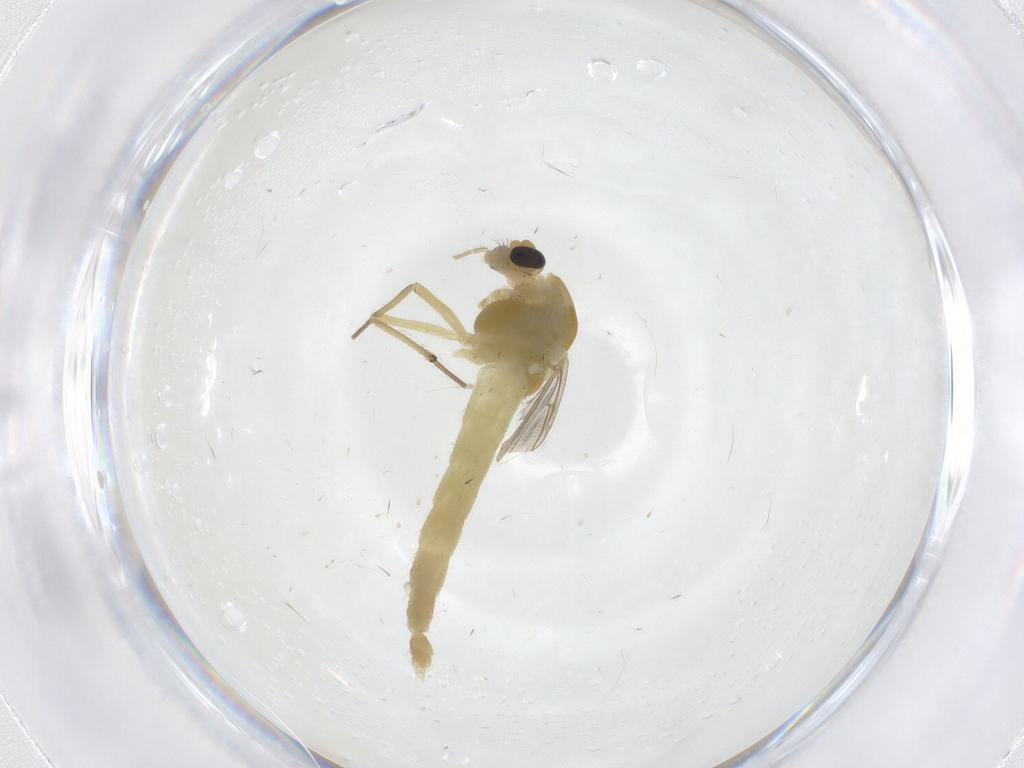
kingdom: Animalia
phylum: Arthropoda
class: Insecta
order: Diptera
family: Chironomidae
